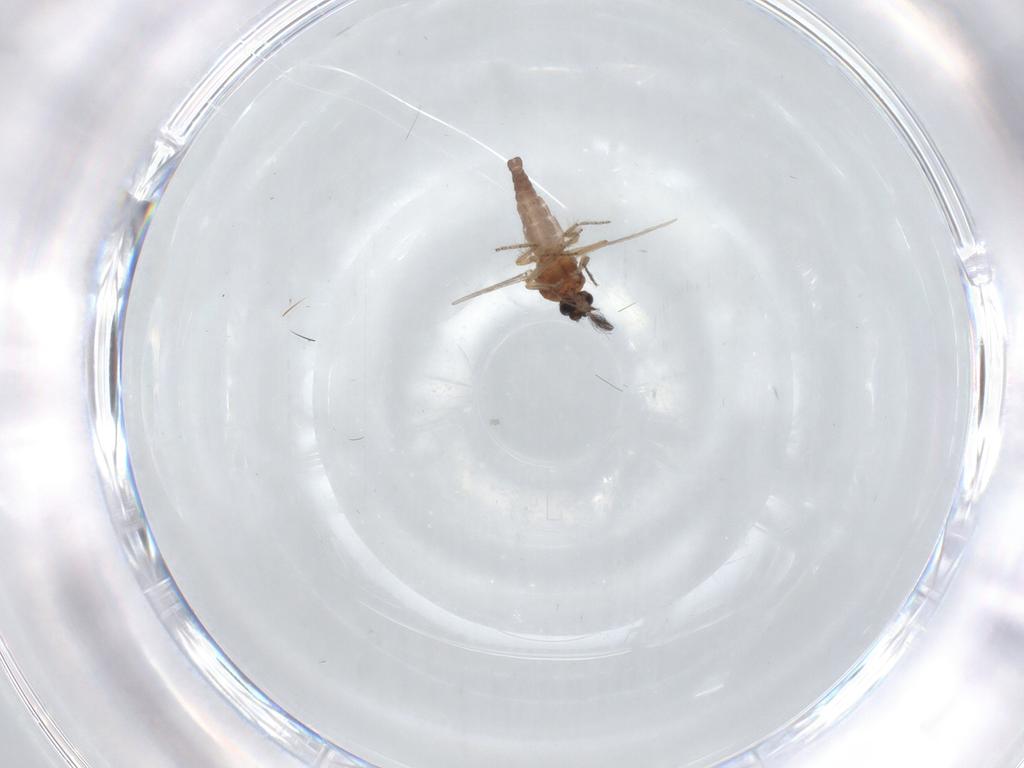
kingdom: Animalia
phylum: Arthropoda
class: Insecta
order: Diptera
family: Ceratopogonidae
